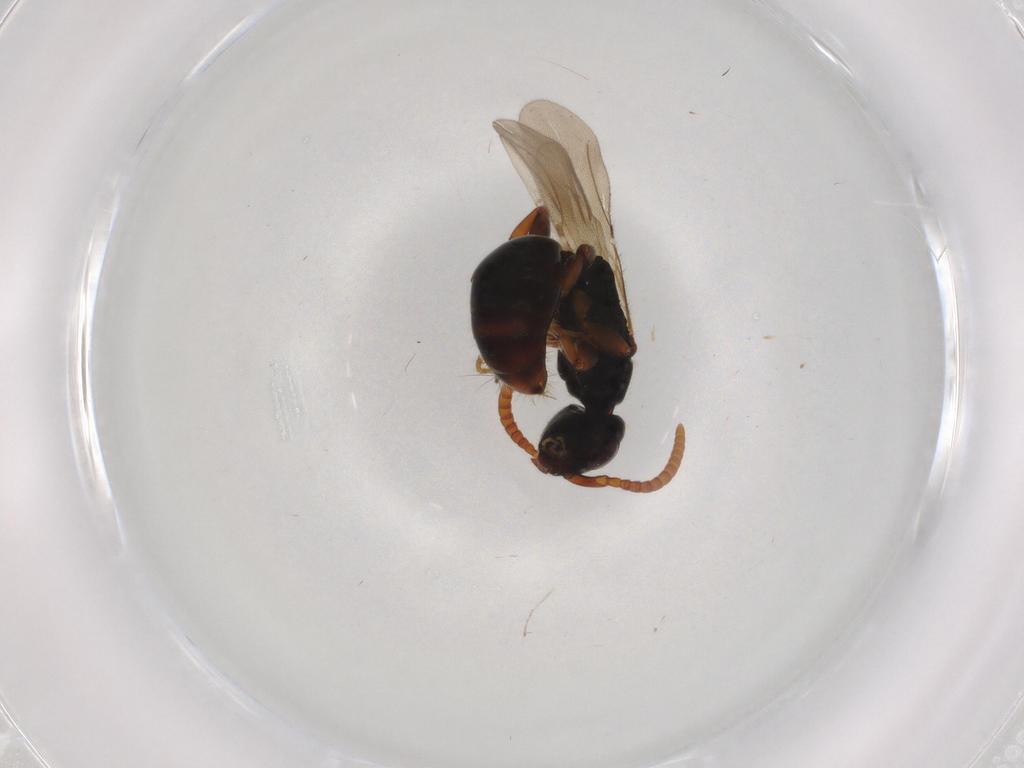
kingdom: Animalia
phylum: Arthropoda
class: Insecta
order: Hymenoptera
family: Bethylidae
